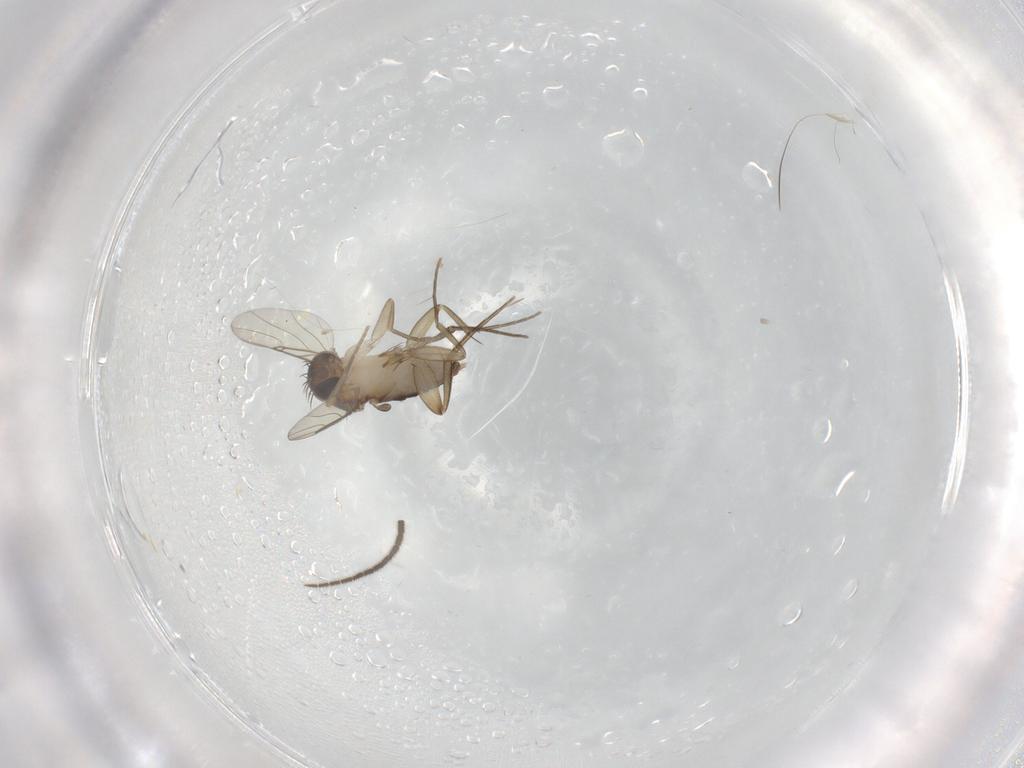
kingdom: Animalia
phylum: Arthropoda
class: Insecta
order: Diptera
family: Phoridae
